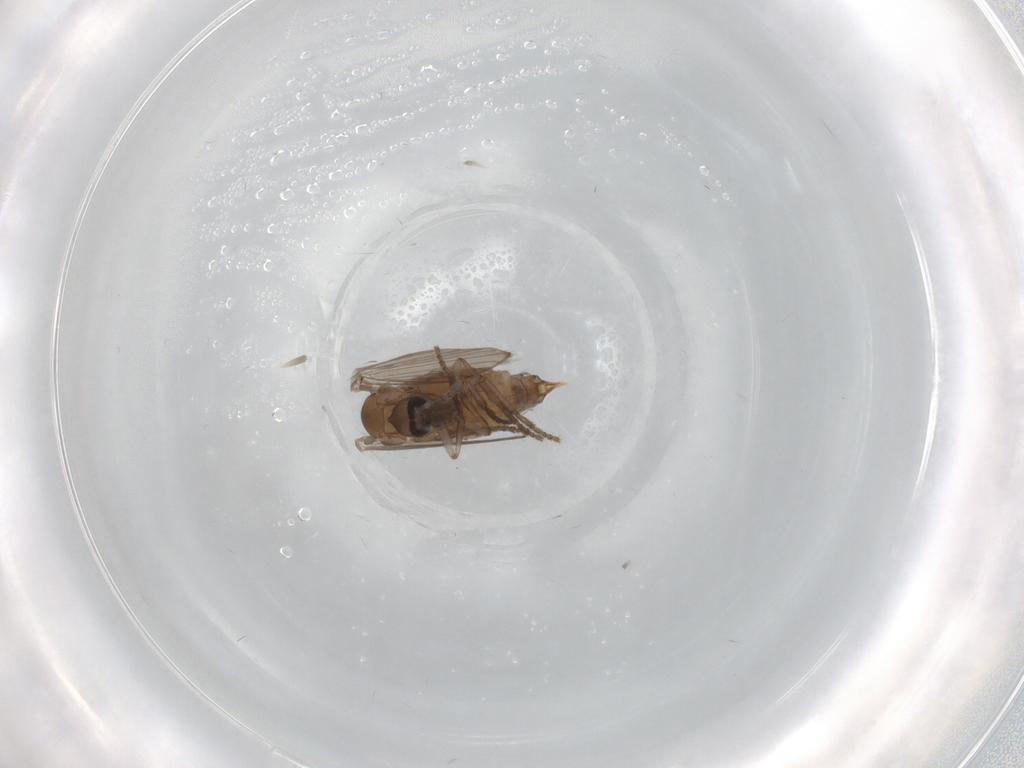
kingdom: Animalia
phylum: Arthropoda
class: Insecta
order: Diptera
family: Psychodidae
